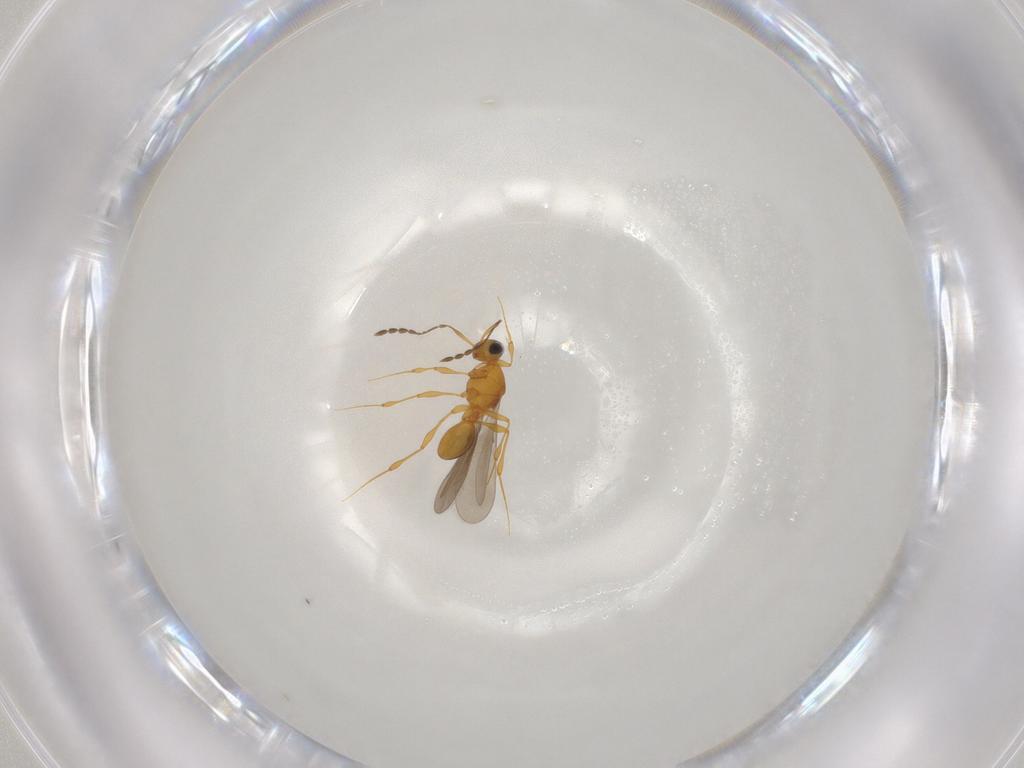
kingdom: Animalia
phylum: Arthropoda
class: Insecta
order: Hymenoptera
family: Platygastridae
